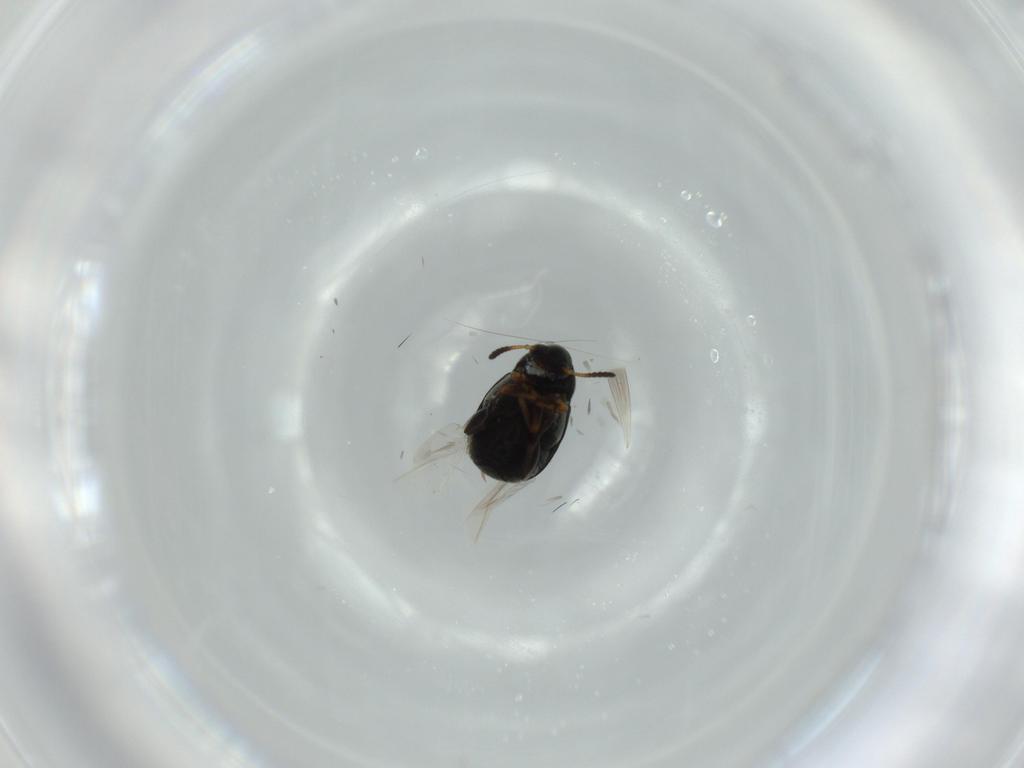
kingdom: Animalia
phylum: Arthropoda
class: Insecta
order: Coleoptera
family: Chrysomelidae
